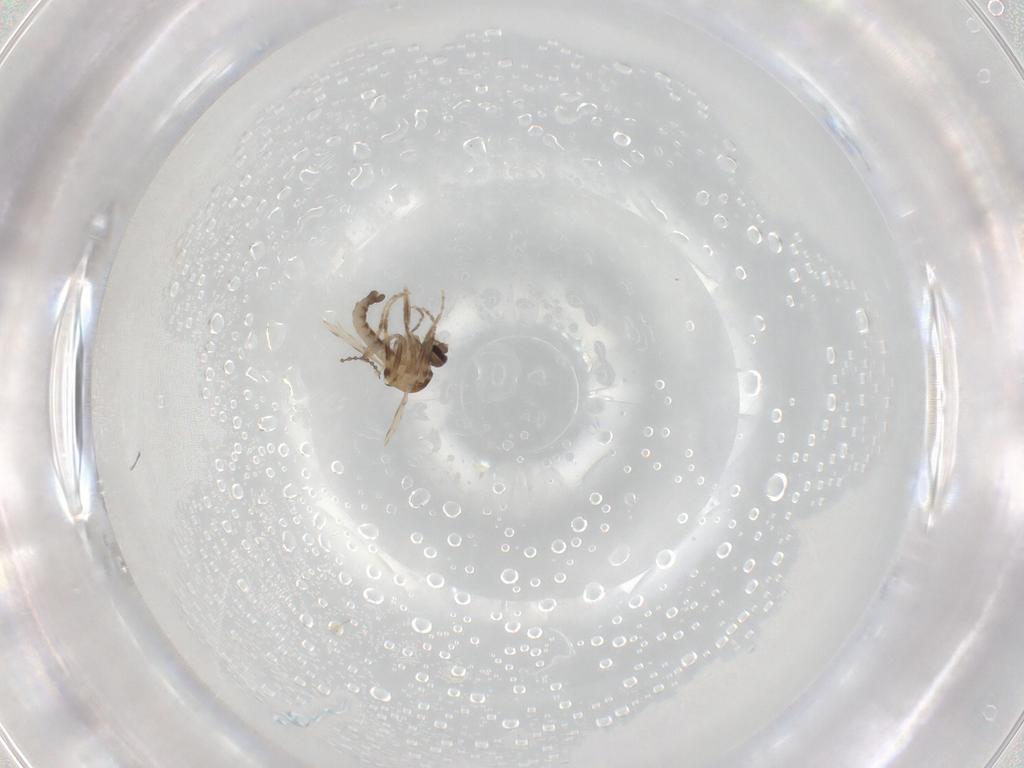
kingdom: Animalia
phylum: Arthropoda
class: Insecta
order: Diptera
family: Ceratopogonidae
